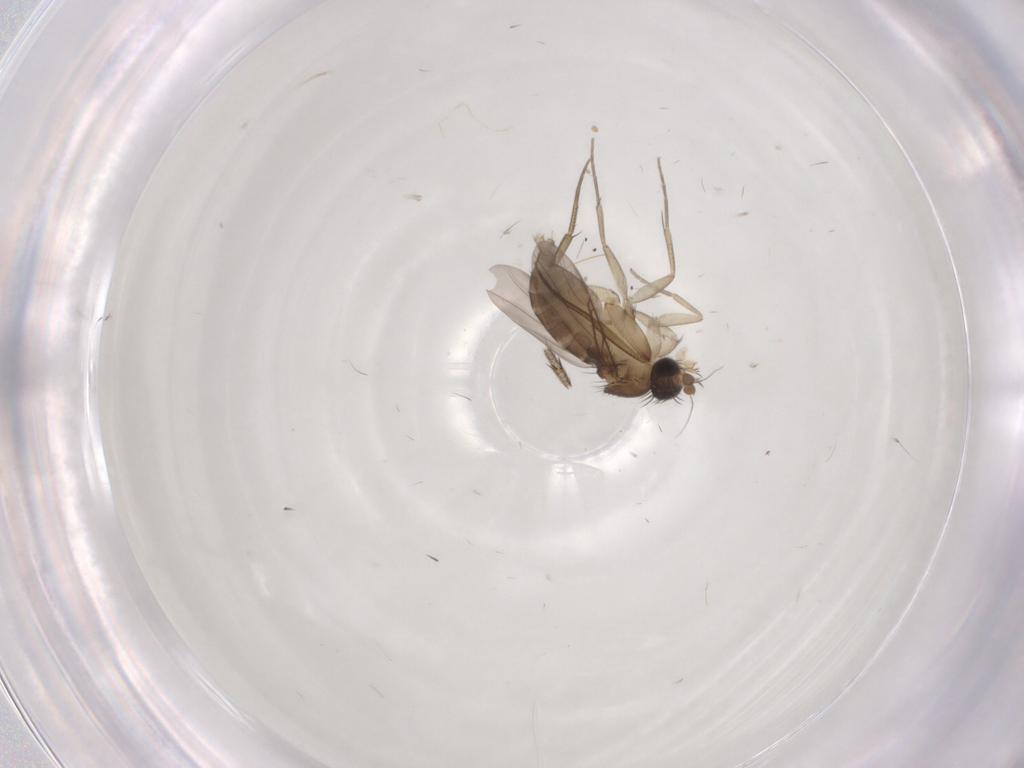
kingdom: Animalia
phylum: Arthropoda
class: Insecta
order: Diptera
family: Phoridae
